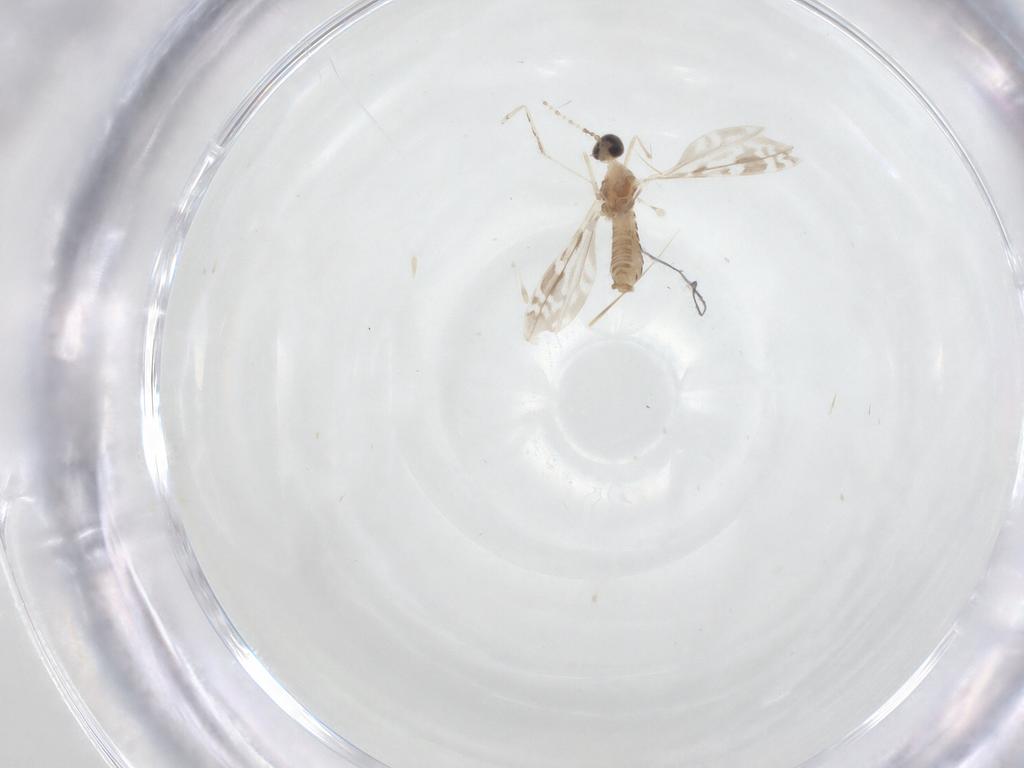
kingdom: Animalia
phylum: Arthropoda
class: Insecta
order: Diptera
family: Cecidomyiidae
